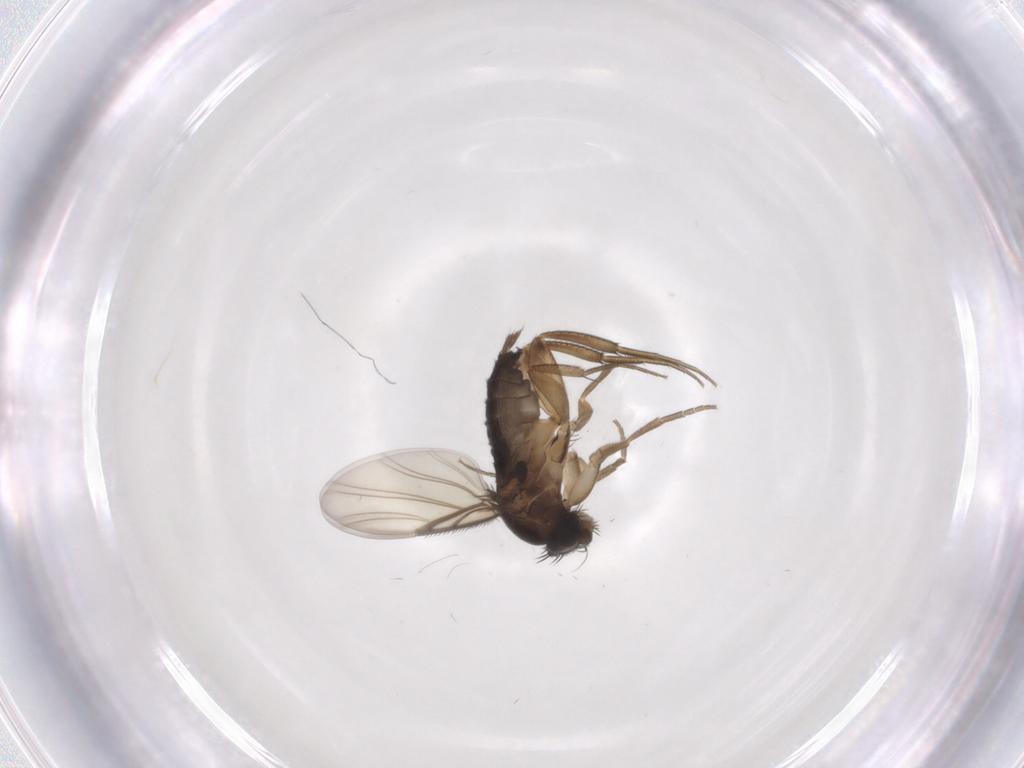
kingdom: Animalia
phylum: Arthropoda
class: Insecta
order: Diptera
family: Phoridae
